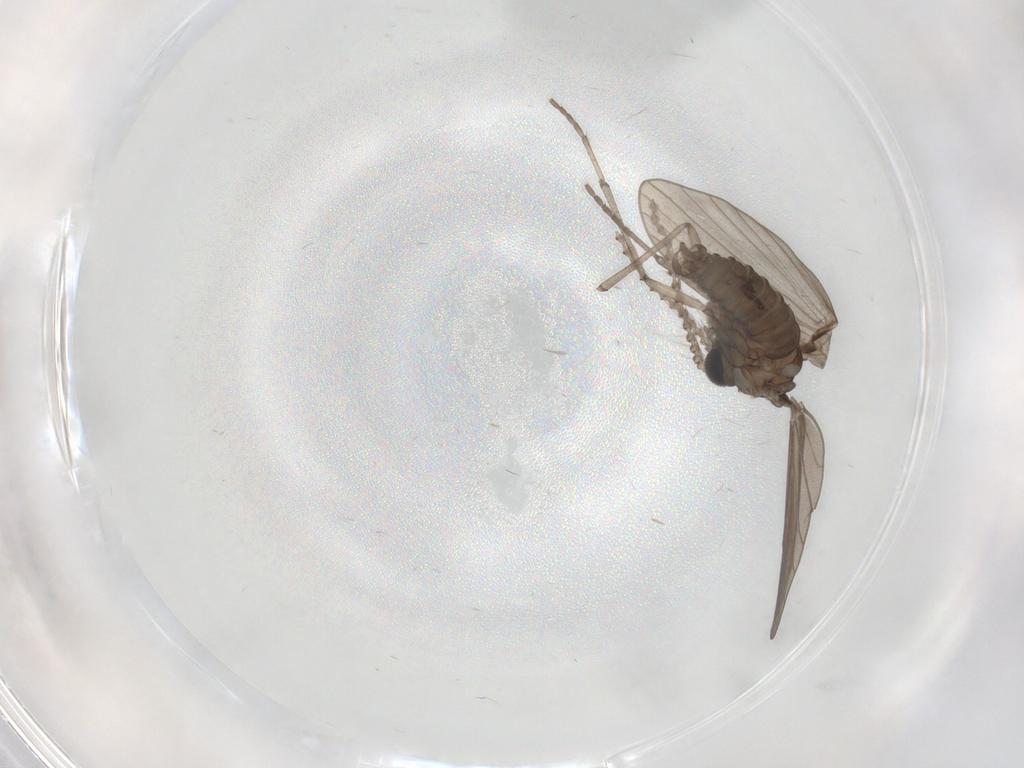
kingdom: Animalia
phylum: Arthropoda
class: Insecta
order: Diptera
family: Psychodidae
